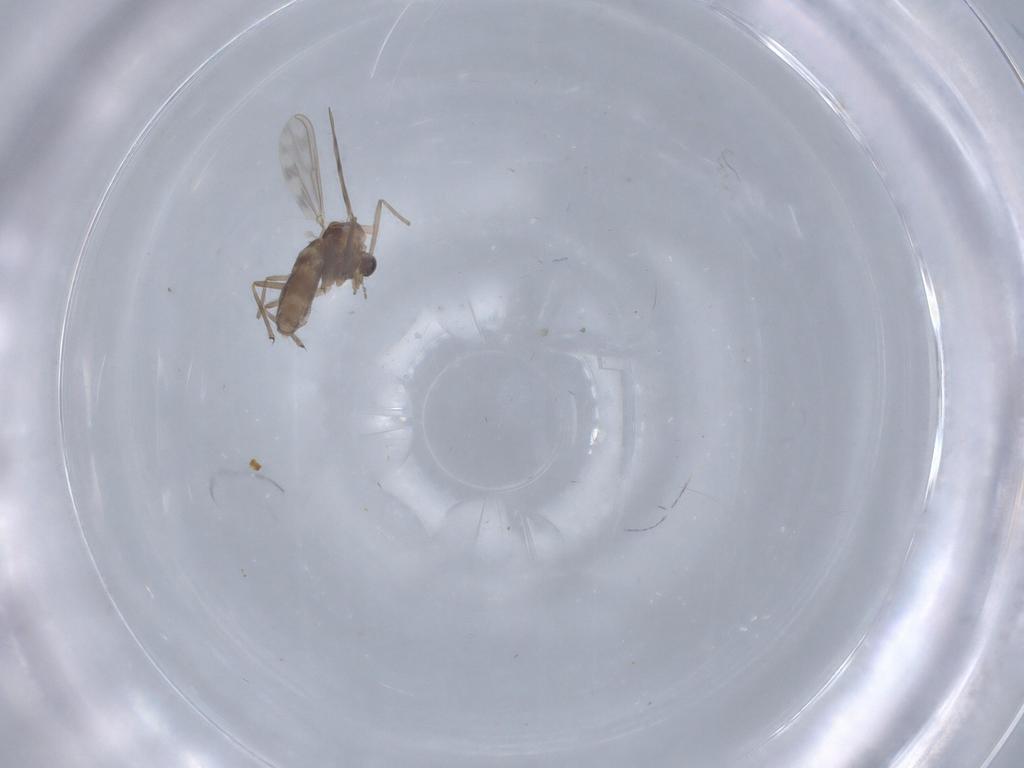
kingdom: Animalia
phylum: Arthropoda
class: Insecta
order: Diptera
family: Chironomidae
